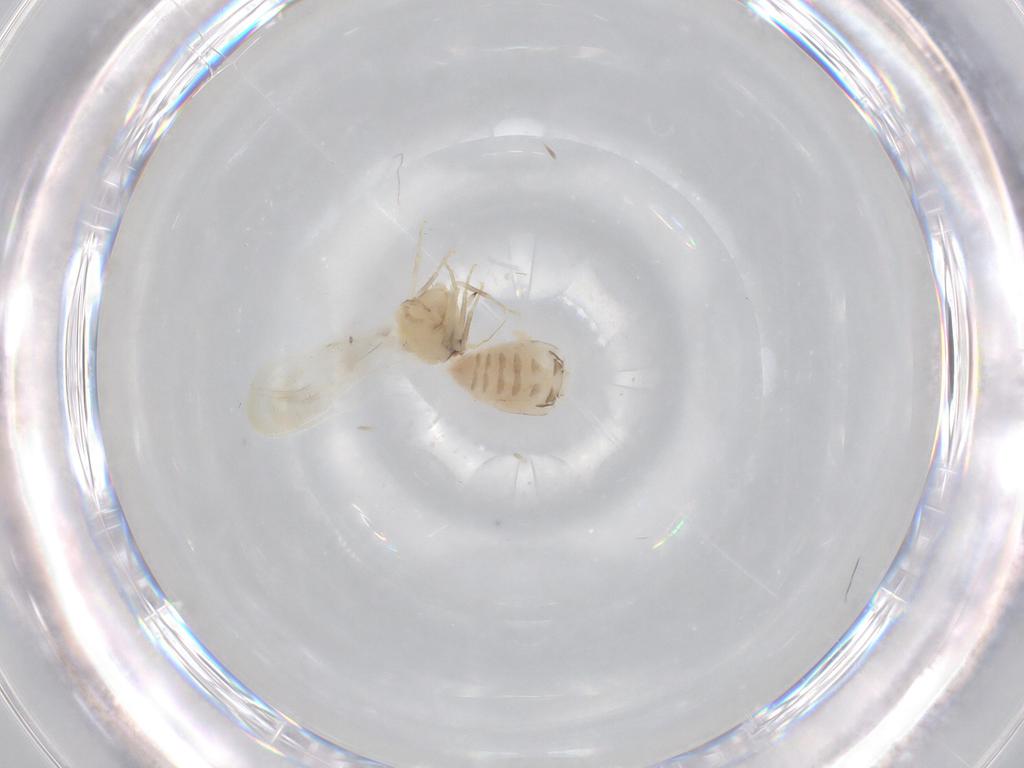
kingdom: Animalia
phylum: Arthropoda
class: Insecta
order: Hemiptera
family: Aleyrodidae
